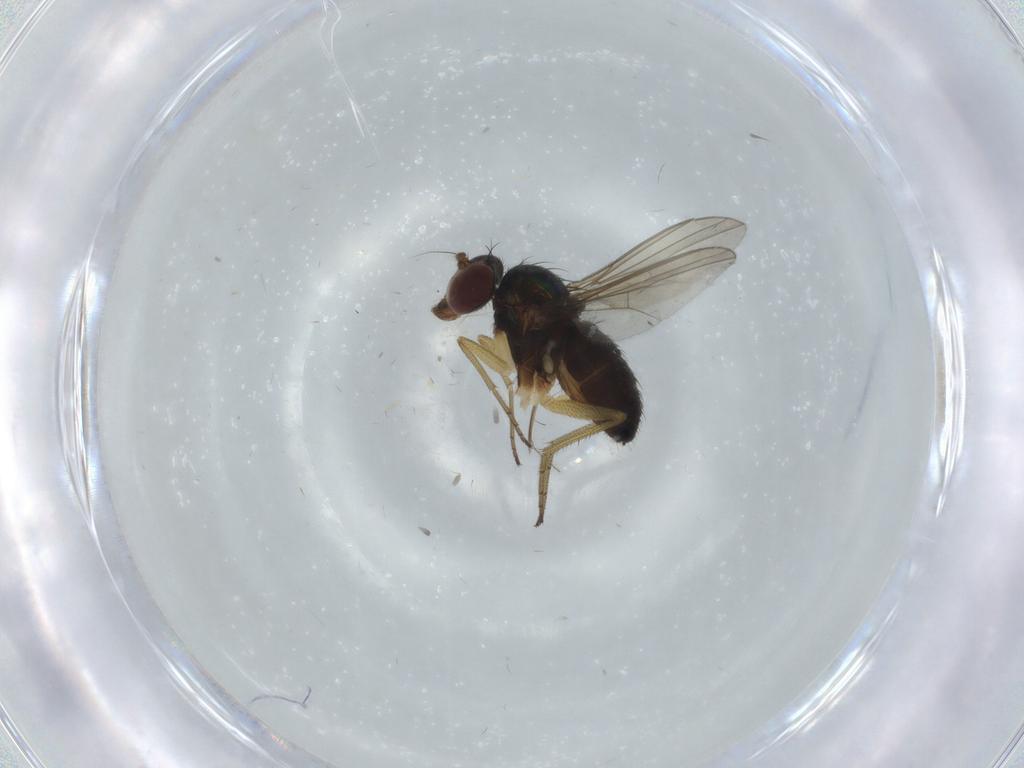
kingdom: Animalia
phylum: Arthropoda
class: Insecta
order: Diptera
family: Dolichopodidae
